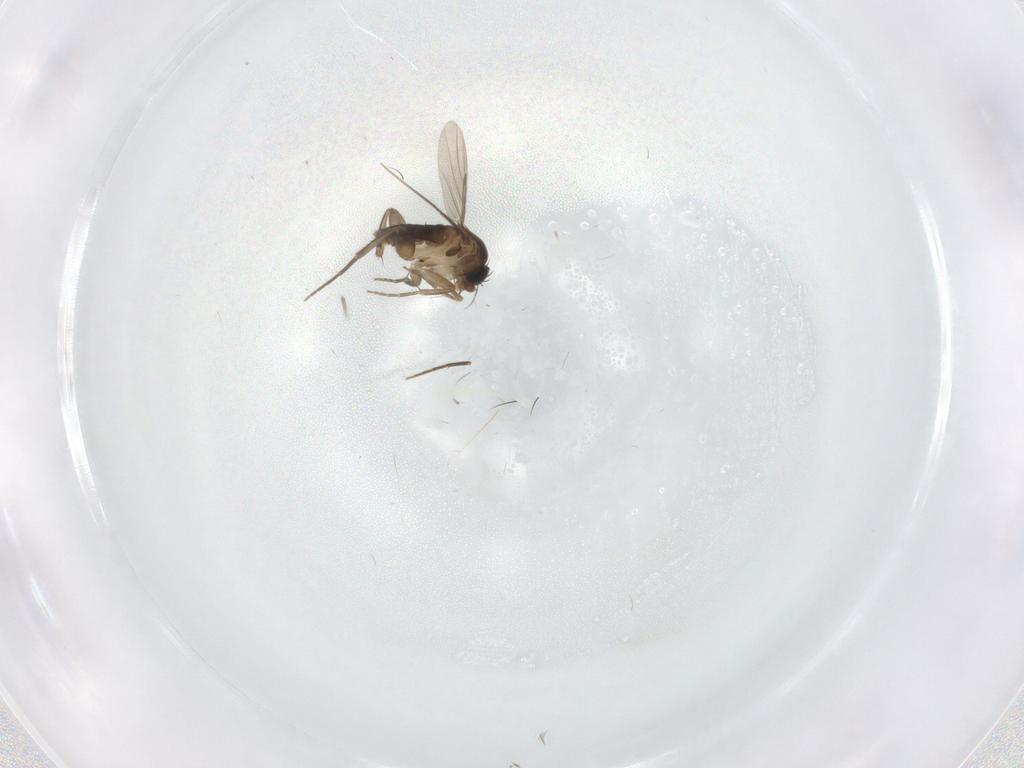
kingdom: Animalia
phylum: Arthropoda
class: Insecta
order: Diptera
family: Phoridae
